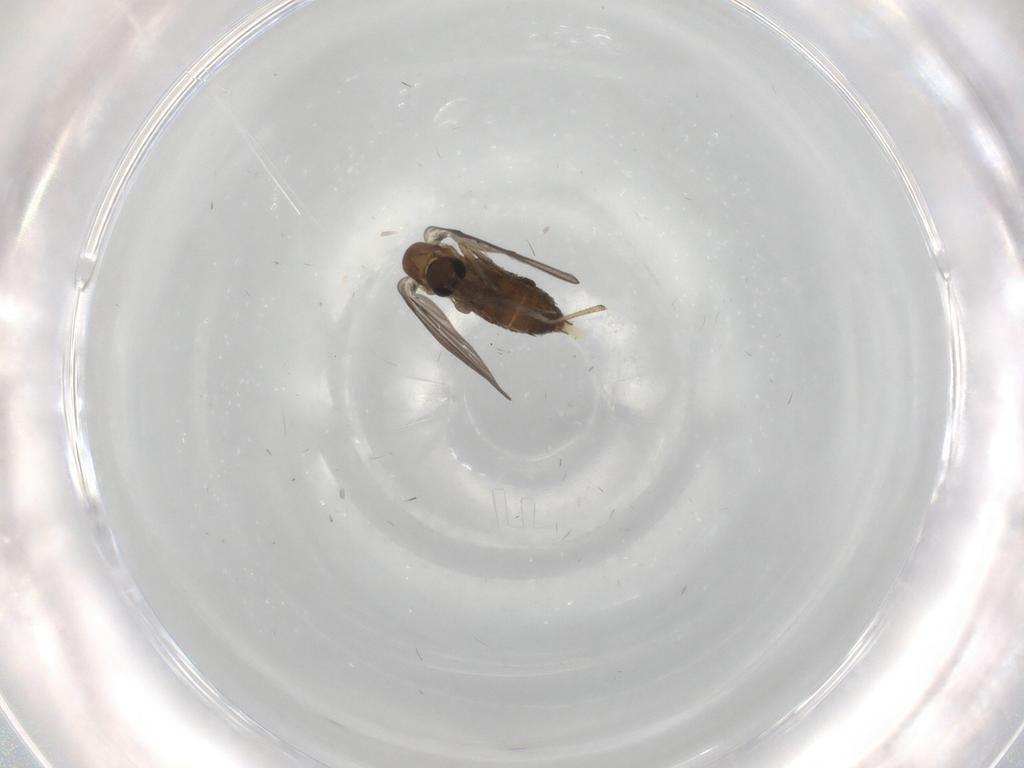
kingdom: Animalia
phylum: Arthropoda
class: Insecta
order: Diptera
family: Psychodidae
